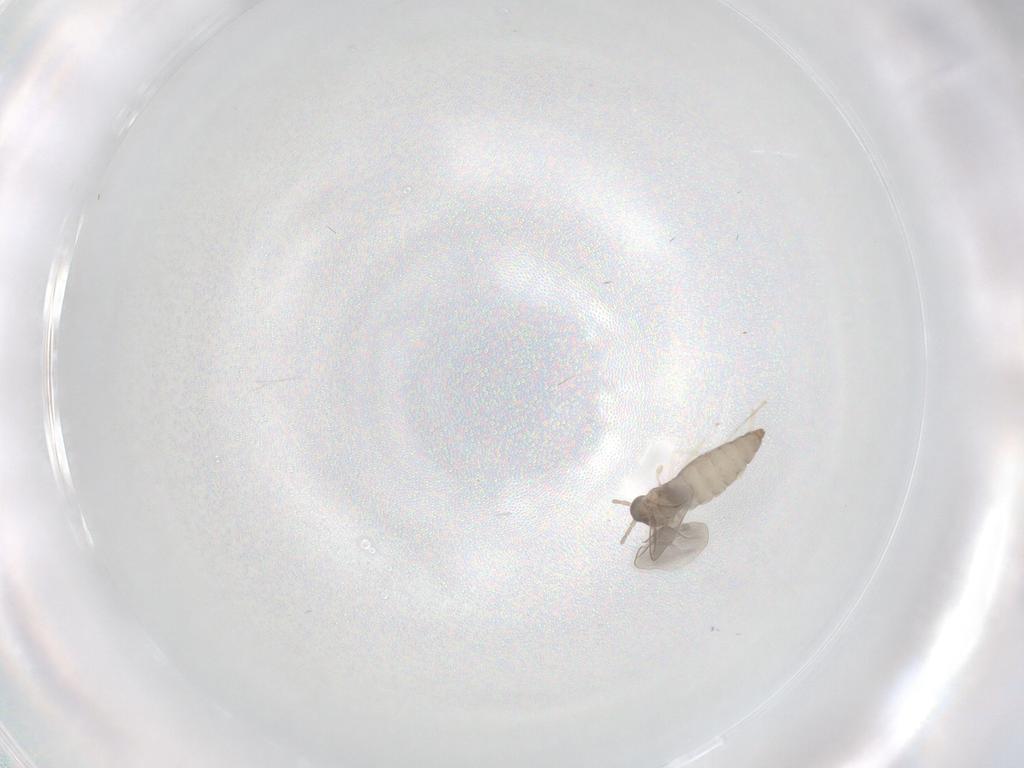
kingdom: Animalia
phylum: Arthropoda
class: Insecta
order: Diptera
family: Cecidomyiidae
